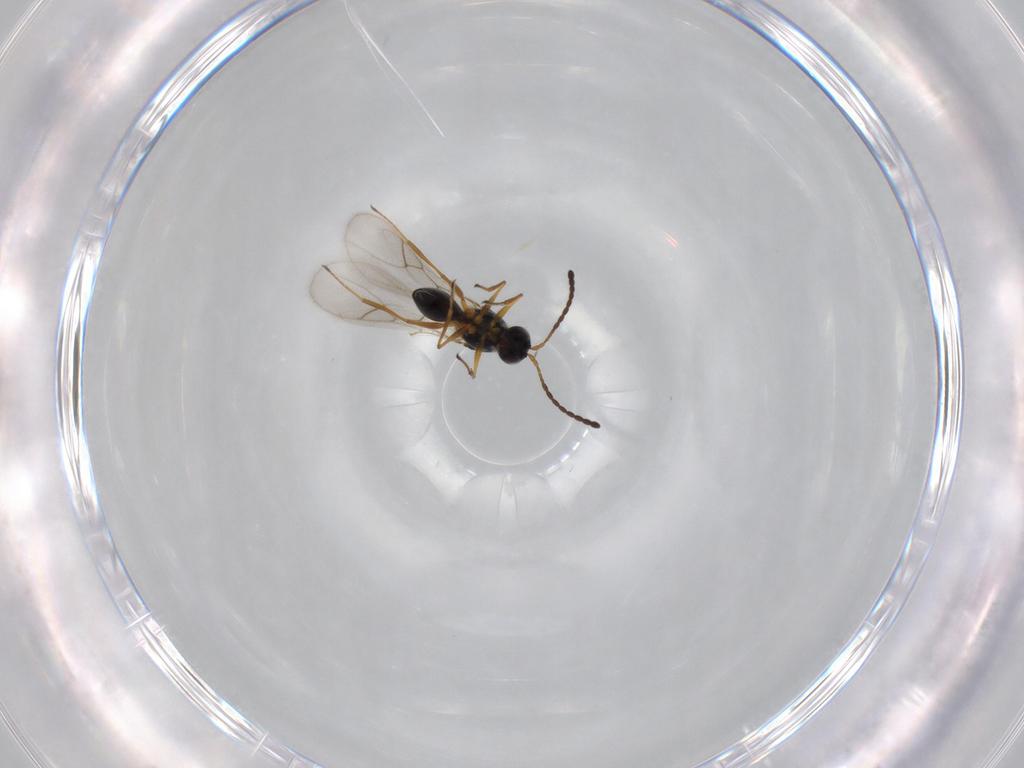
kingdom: Animalia
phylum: Arthropoda
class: Insecta
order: Hymenoptera
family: Figitidae
